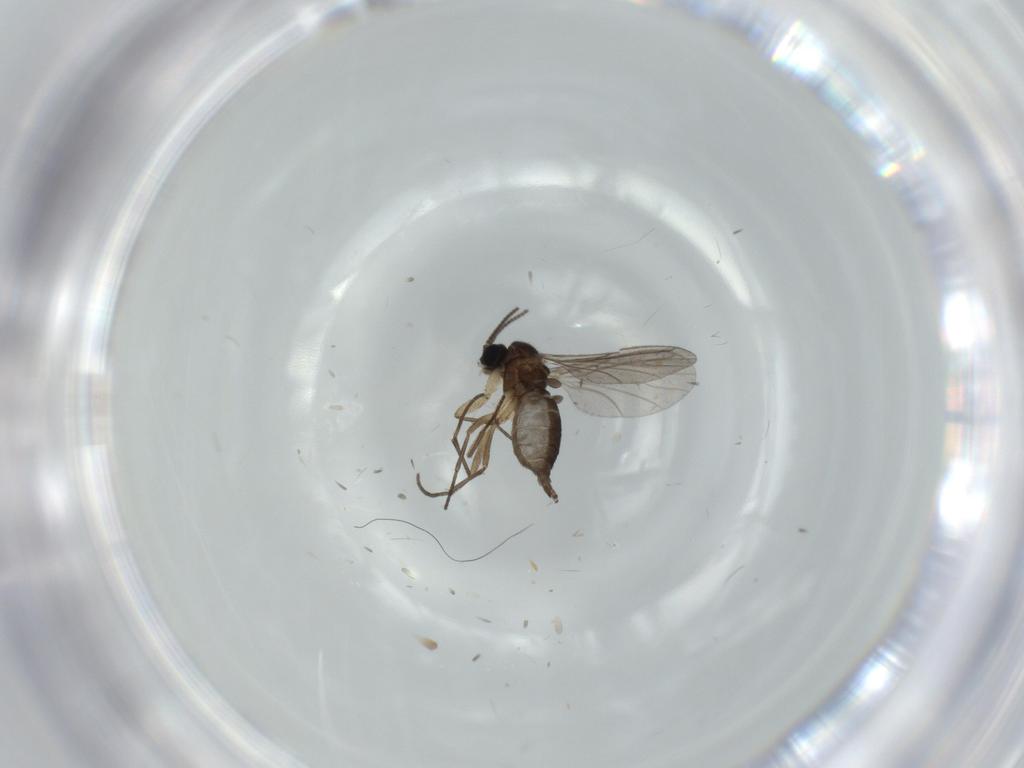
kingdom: Animalia
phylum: Arthropoda
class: Insecta
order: Diptera
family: Sciaridae
